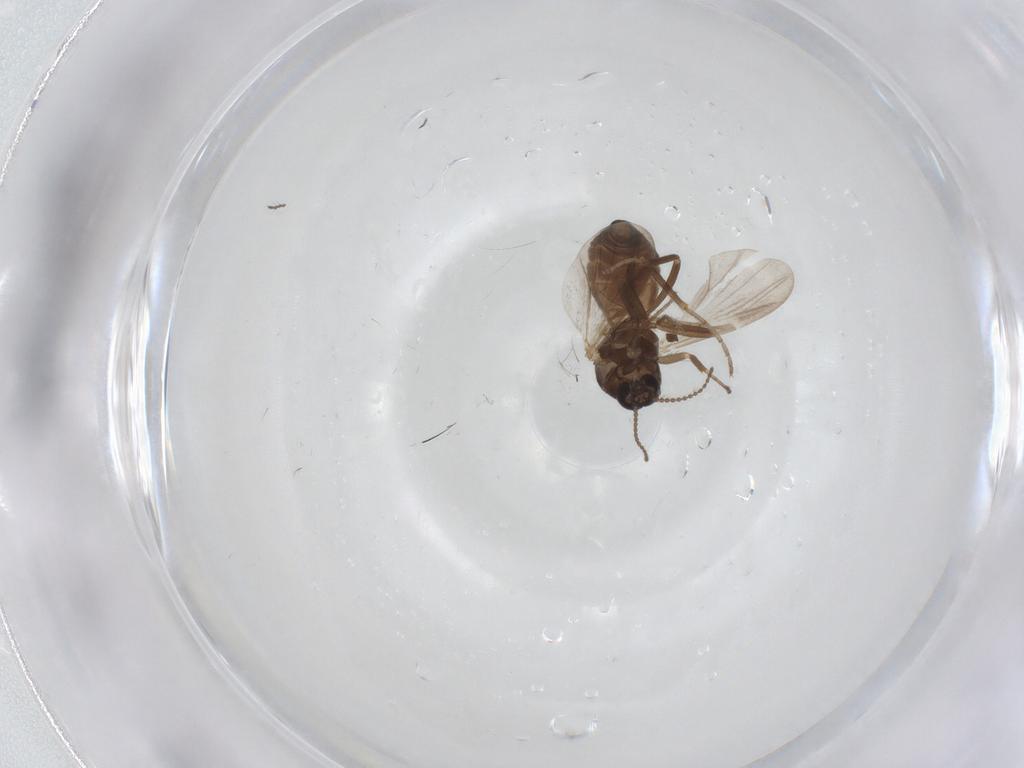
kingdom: Animalia
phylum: Arthropoda
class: Insecta
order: Diptera
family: Ceratopogonidae
